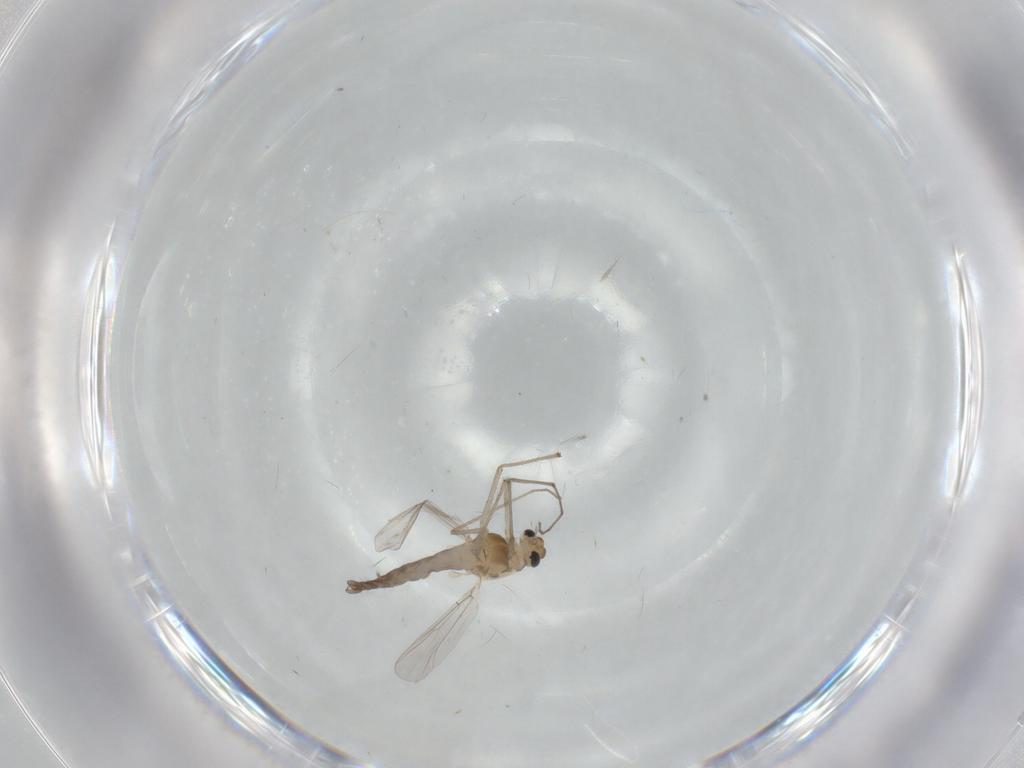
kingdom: Animalia
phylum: Arthropoda
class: Insecta
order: Diptera
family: Chironomidae
